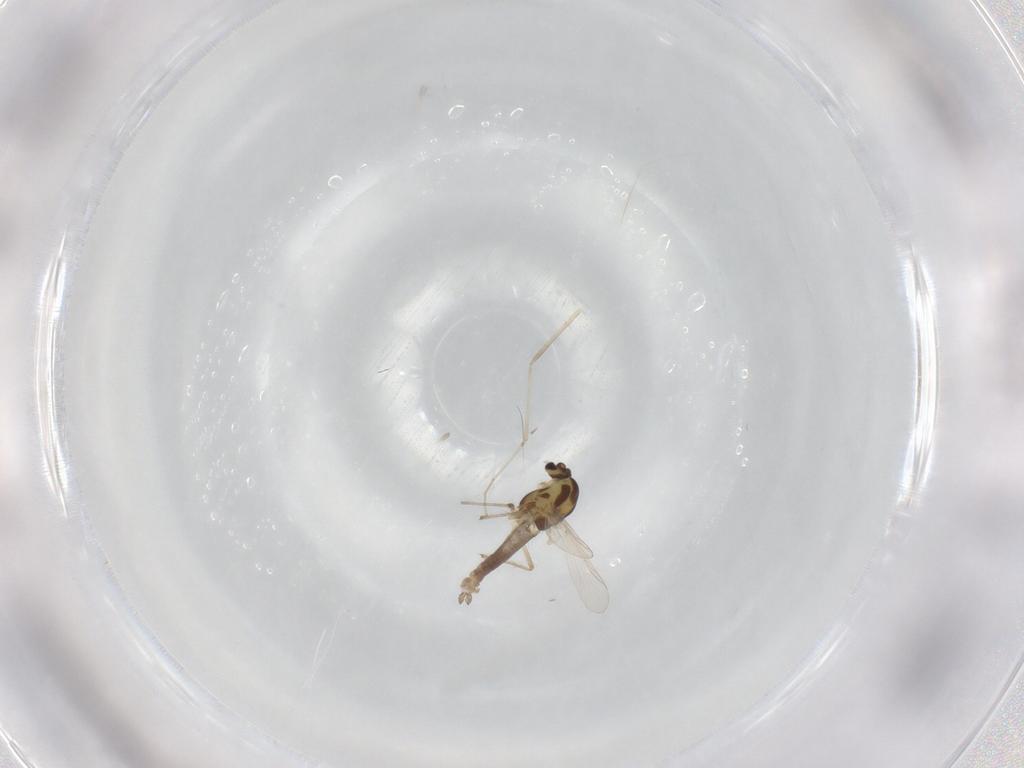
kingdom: Animalia
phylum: Arthropoda
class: Insecta
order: Diptera
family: Chironomidae
